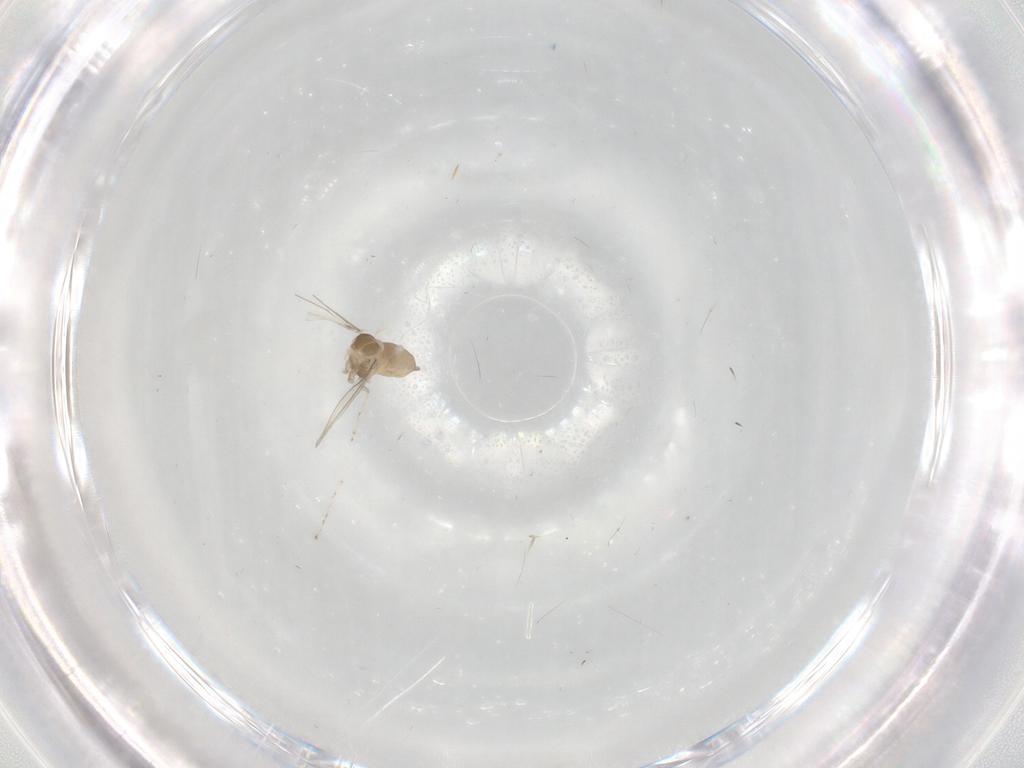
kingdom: Animalia
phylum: Arthropoda
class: Insecta
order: Diptera
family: Cecidomyiidae
